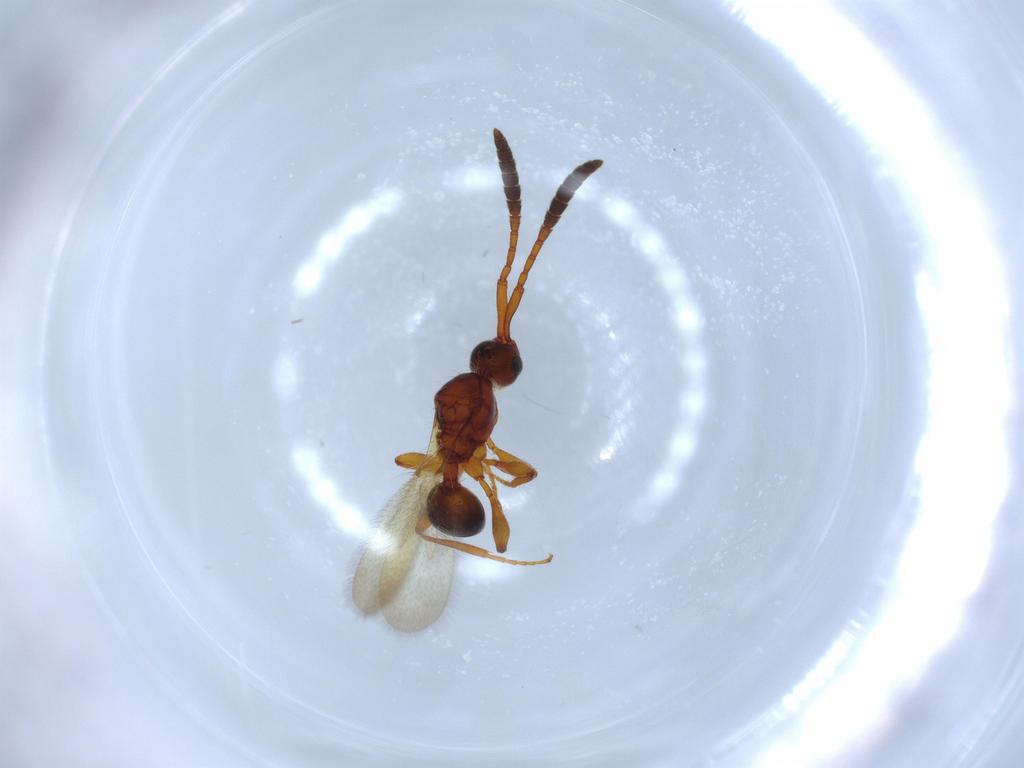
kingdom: Animalia
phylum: Arthropoda
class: Insecta
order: Hymenoptera
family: Diapriidae
